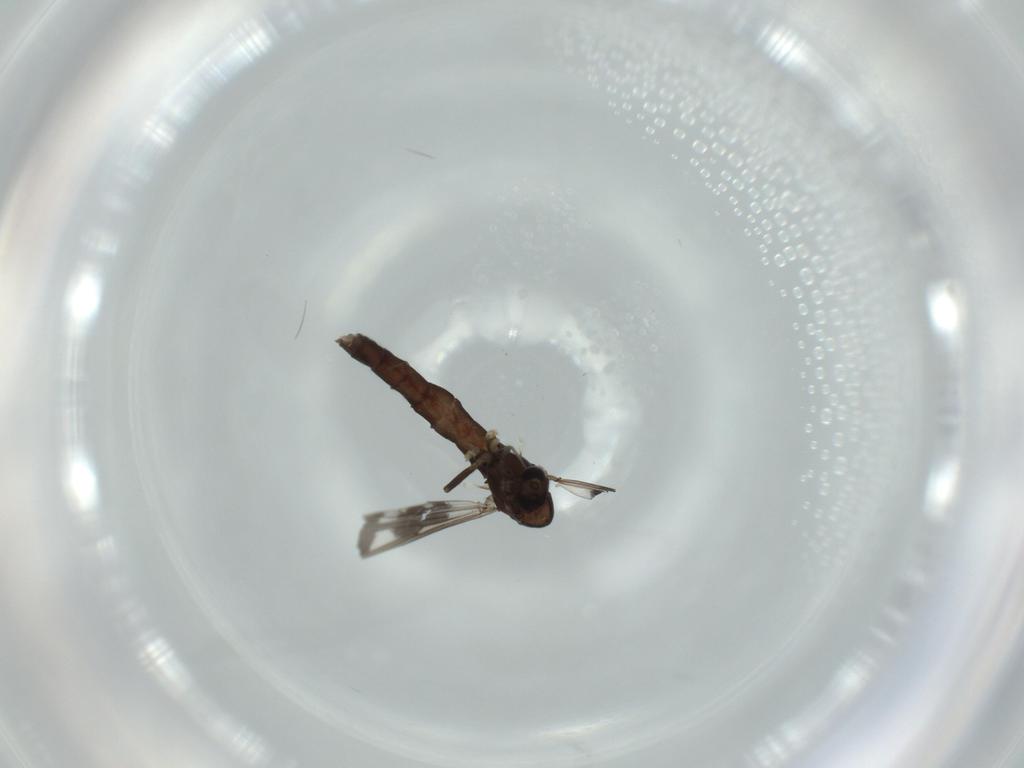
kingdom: Animalia
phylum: Arthropoda
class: Insecta
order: Diptera
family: Chironomidae
